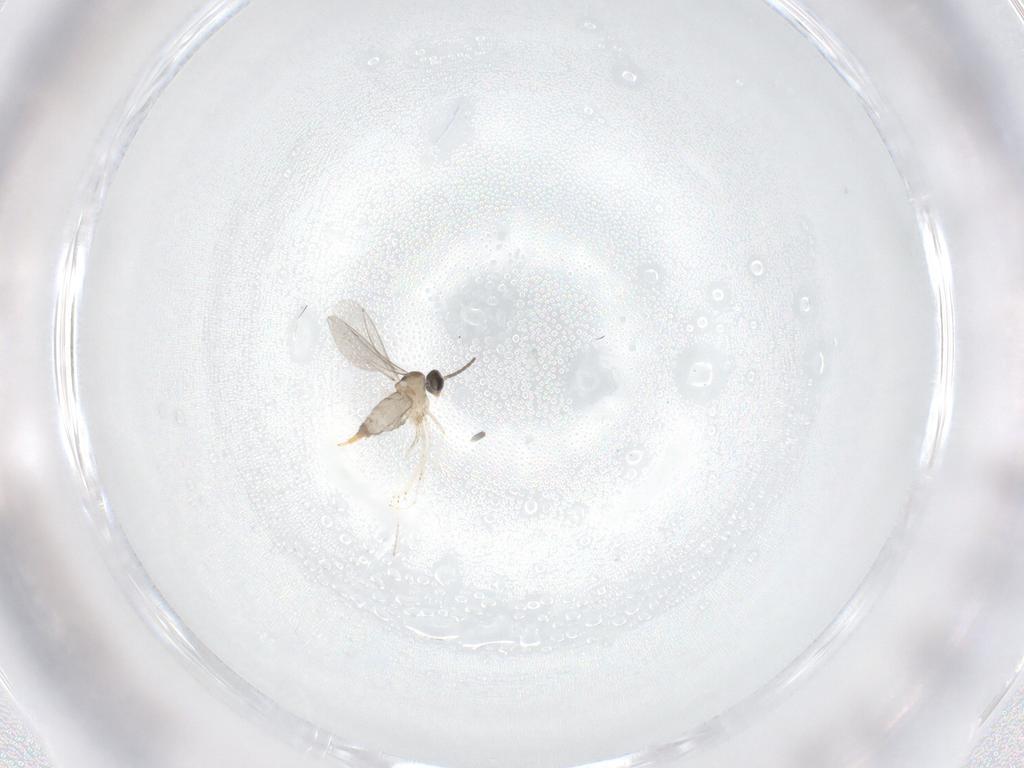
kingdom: Animalia
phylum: Arthropoda
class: Insecta
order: Diptera
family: Cecidomyiidae
